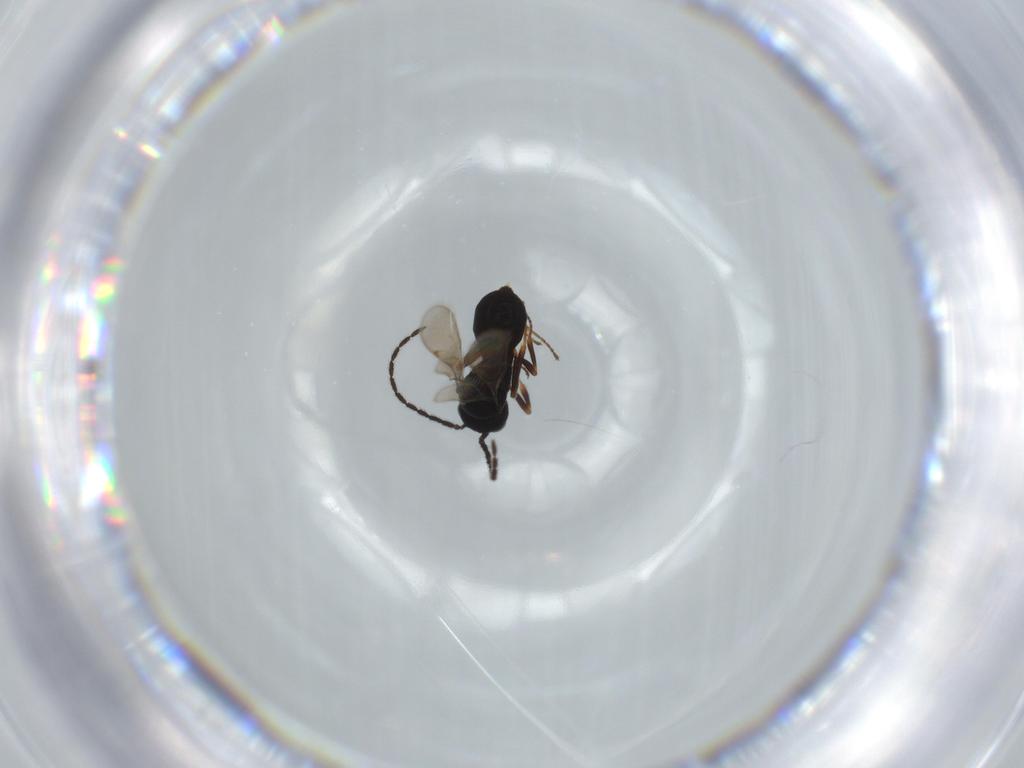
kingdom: Animalia
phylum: Arthropoda
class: Insecta
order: Hymenoptera
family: Scelionidae
